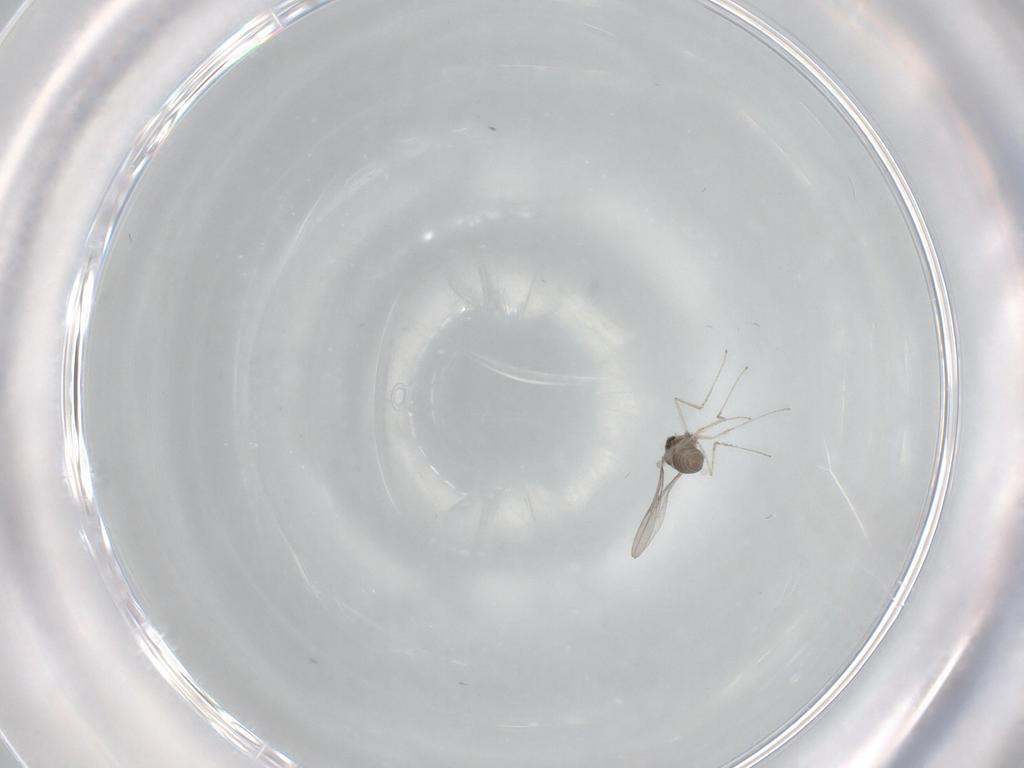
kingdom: Animalia
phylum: Arthropoda
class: Insecta
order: Diptera
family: Cecidomyiidae
